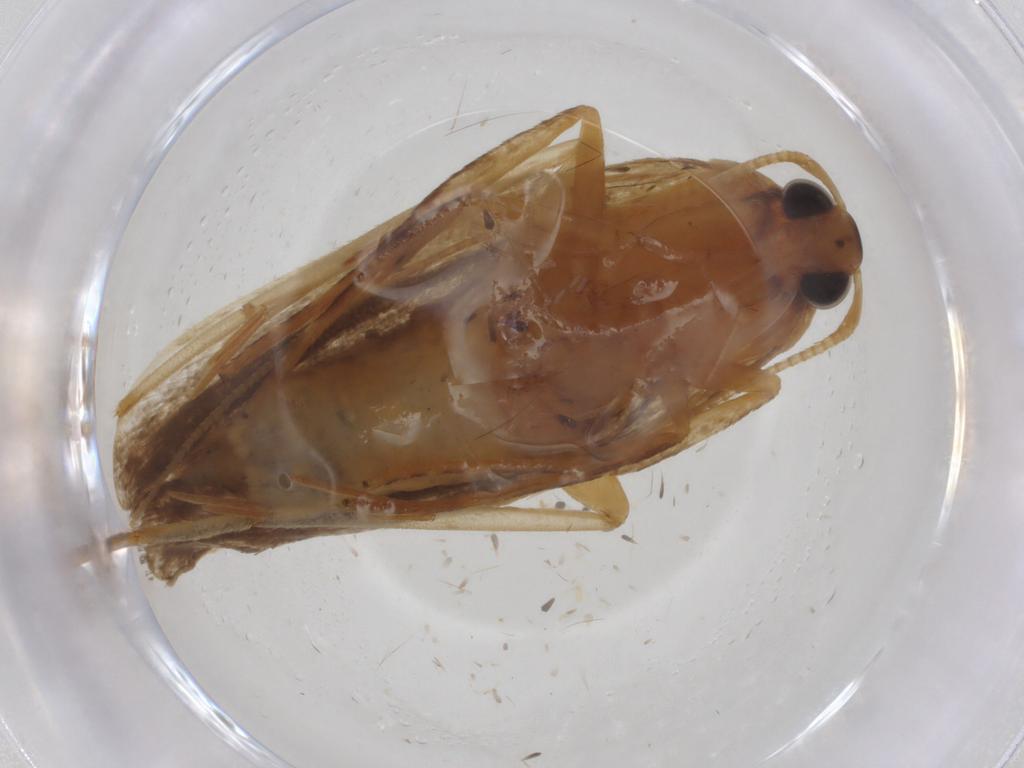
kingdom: Animalia
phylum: Arthropoda
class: Insecta
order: Lepidoptera
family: Lecithoceridae
